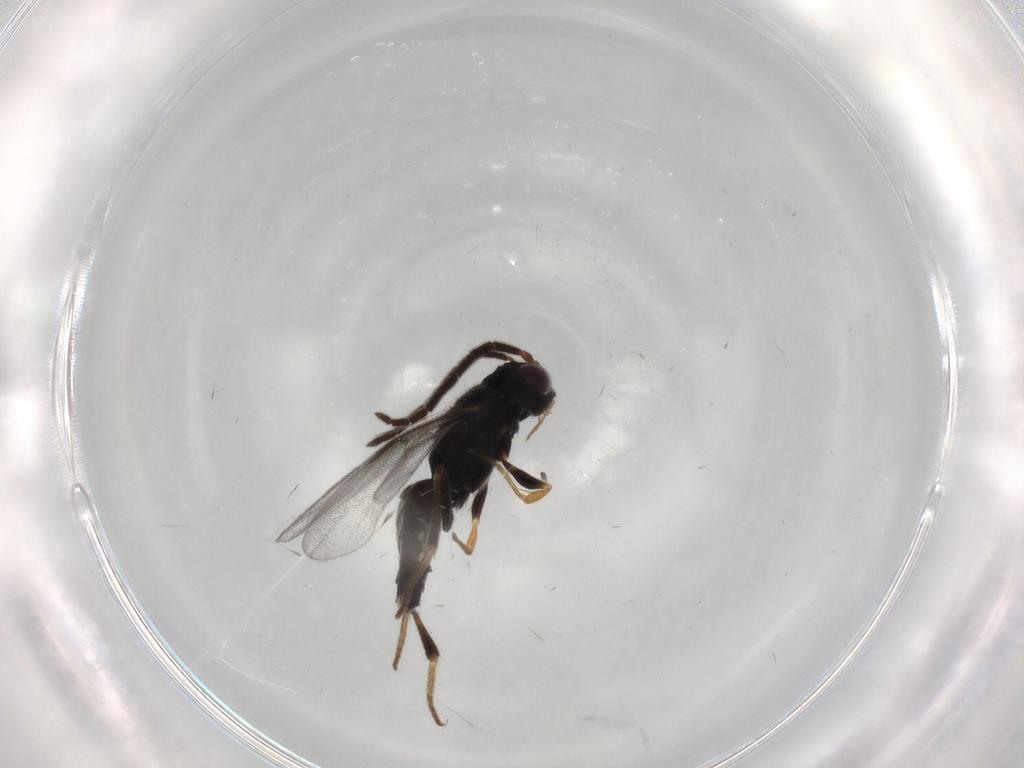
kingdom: Animalia
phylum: Arthropoda
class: Insecta
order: Hymenoptera
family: Dryinidae
